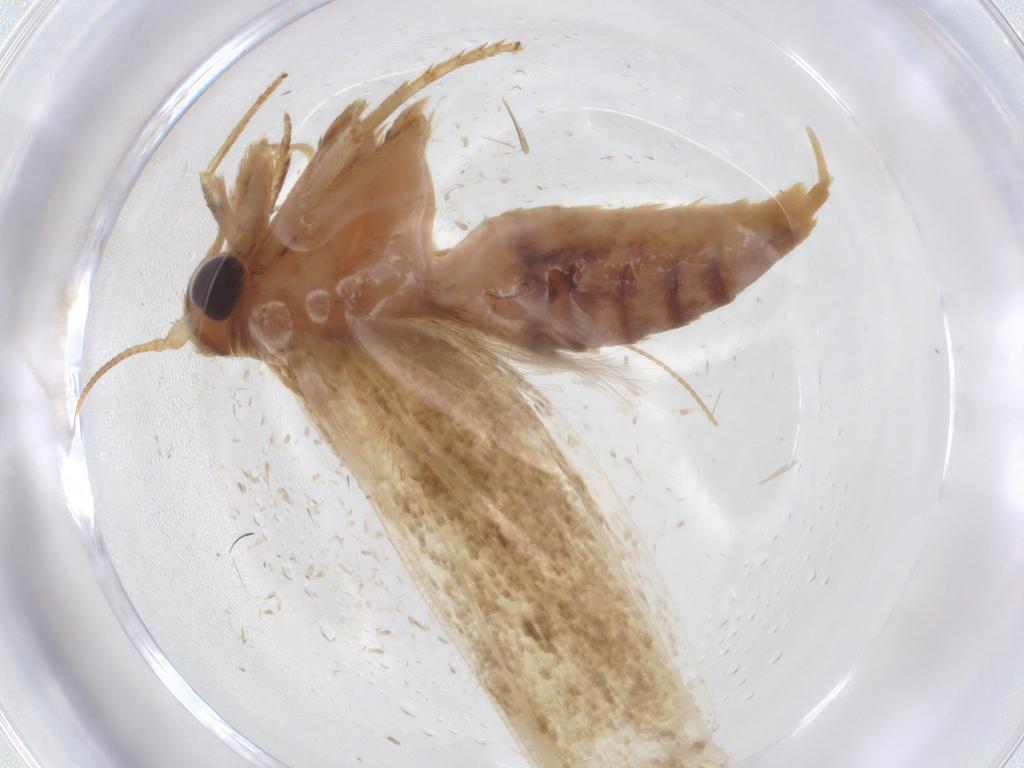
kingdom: Animalia
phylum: Arthropoda
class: Insecta
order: Lepidoptera
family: Blastobasidae
